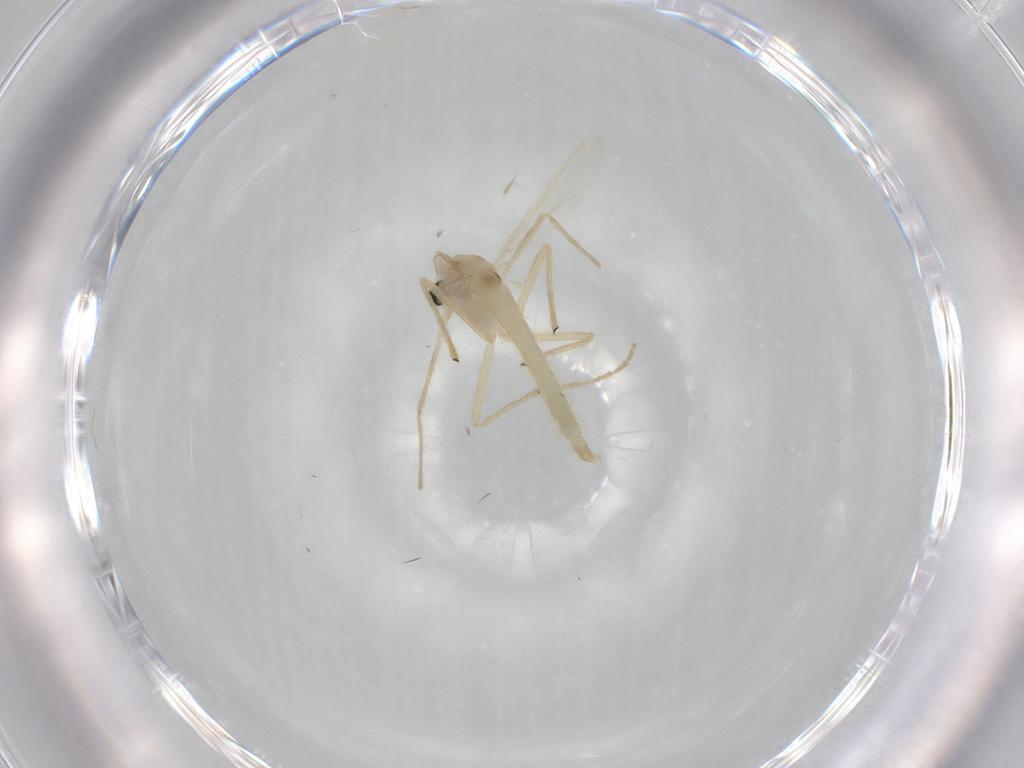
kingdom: Animalia
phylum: Arthropoda
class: Insecta
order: Diptera
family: Chironomidae
